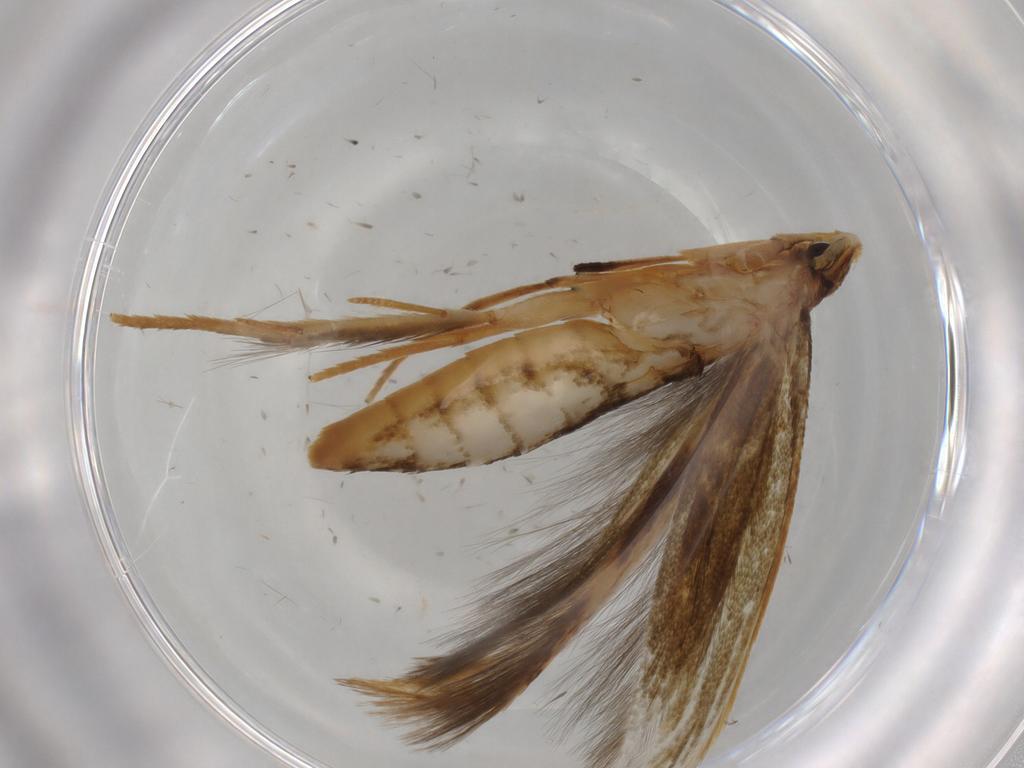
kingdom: Animalia
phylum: Arthropoda
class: Insecta
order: Lepidoptera
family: Tineidae
